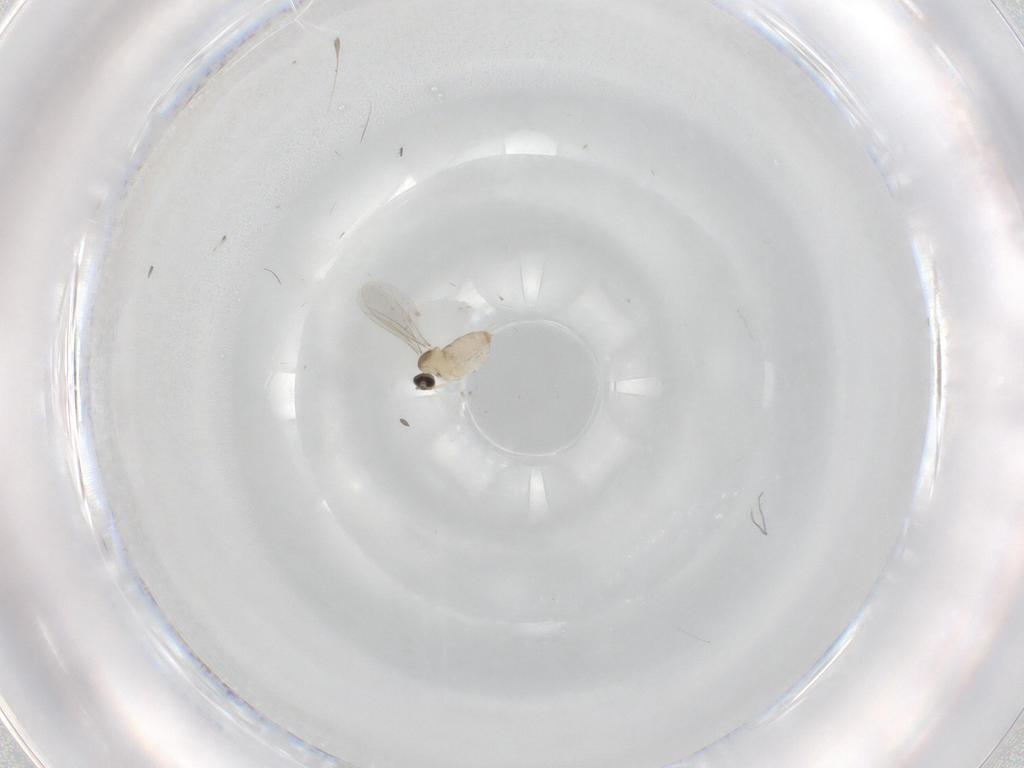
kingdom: Animalia
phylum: Arthropoda
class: Insecta
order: Diptera
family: Cecidomyiidae
